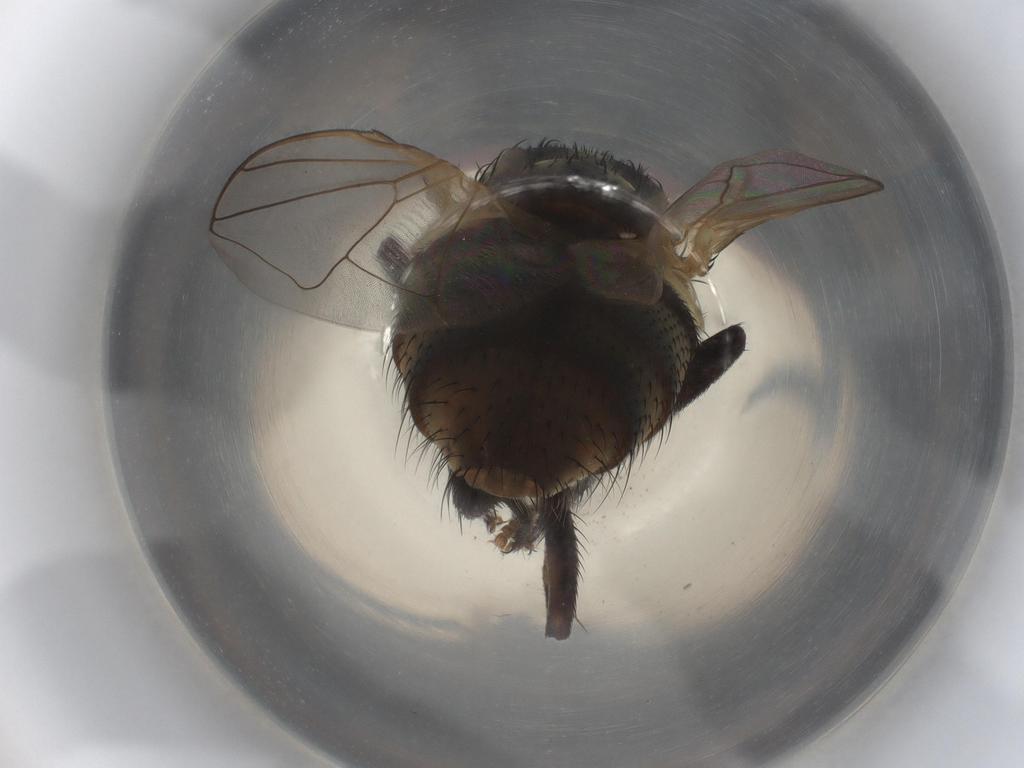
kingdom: Animalia
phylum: Arthropoda
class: Insecta
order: Diptera
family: Muscidae
